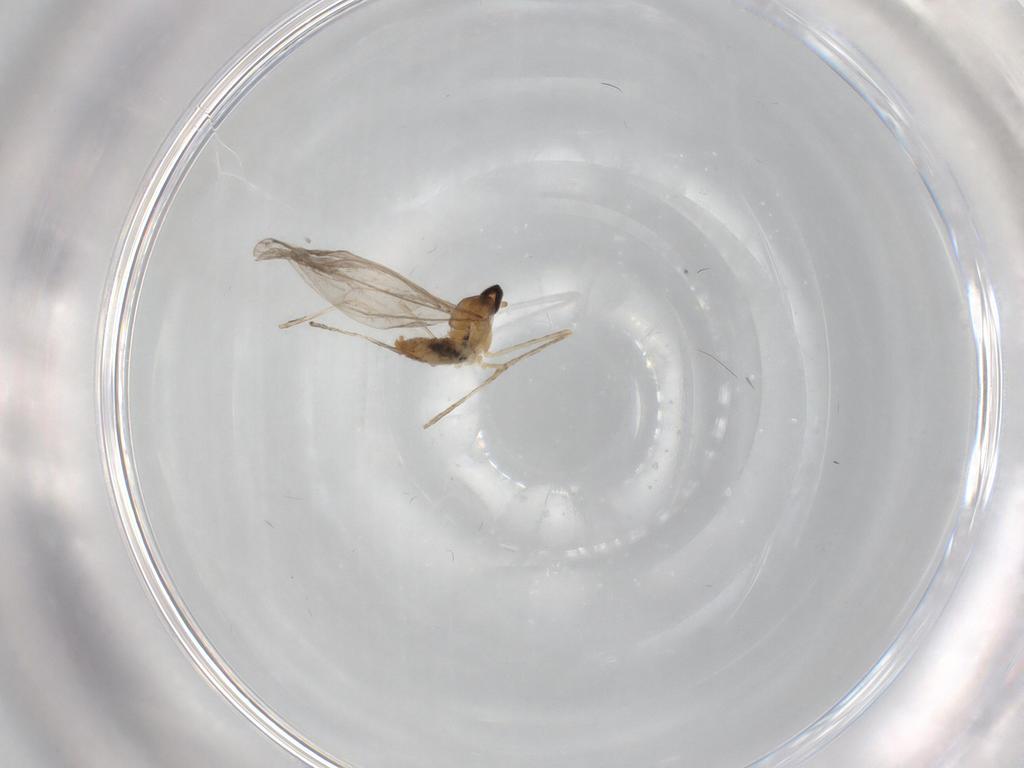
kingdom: Animalia
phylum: Arthropoda
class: Insecta
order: Diptera
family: Cecidomyiidae
